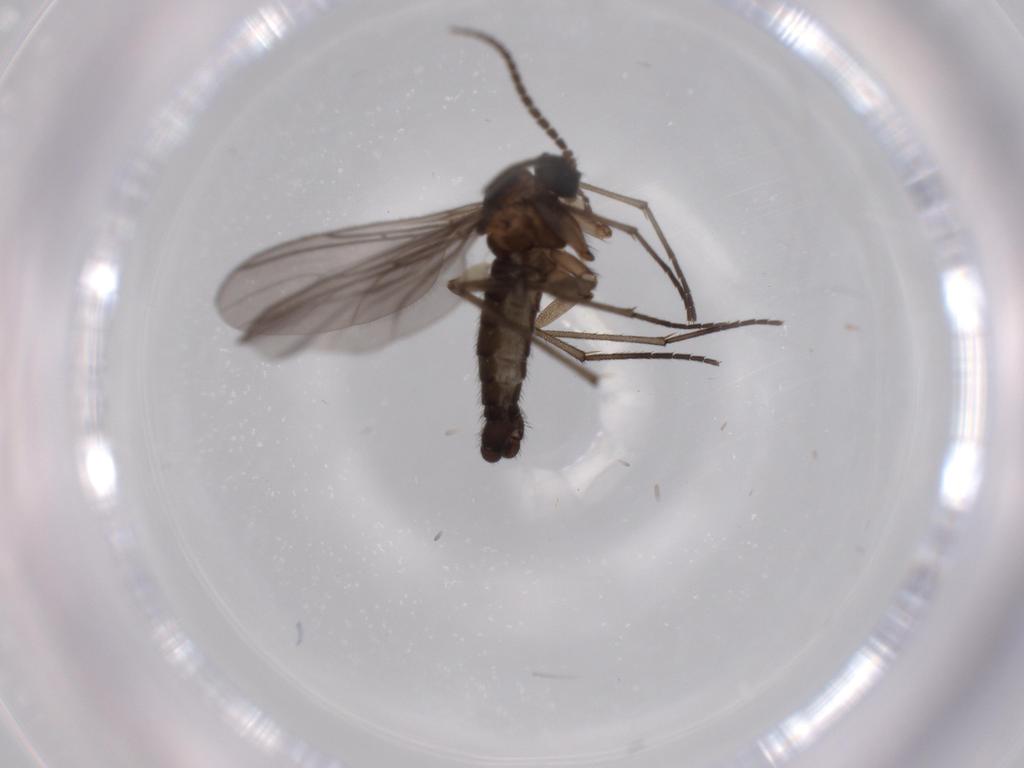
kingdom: Animalia
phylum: Arthropoda
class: Insecta
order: Diptera
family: Sciaridae
